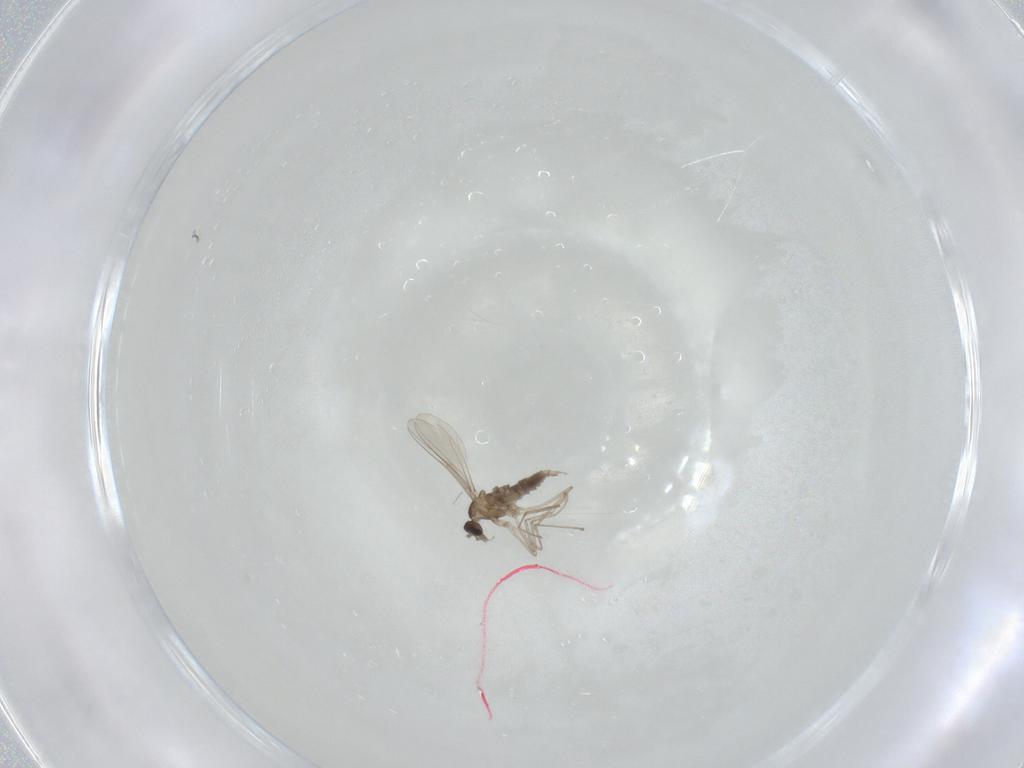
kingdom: Animalia
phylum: Arthropoda
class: Insecta
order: Diptera
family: Cecidomyiidae
